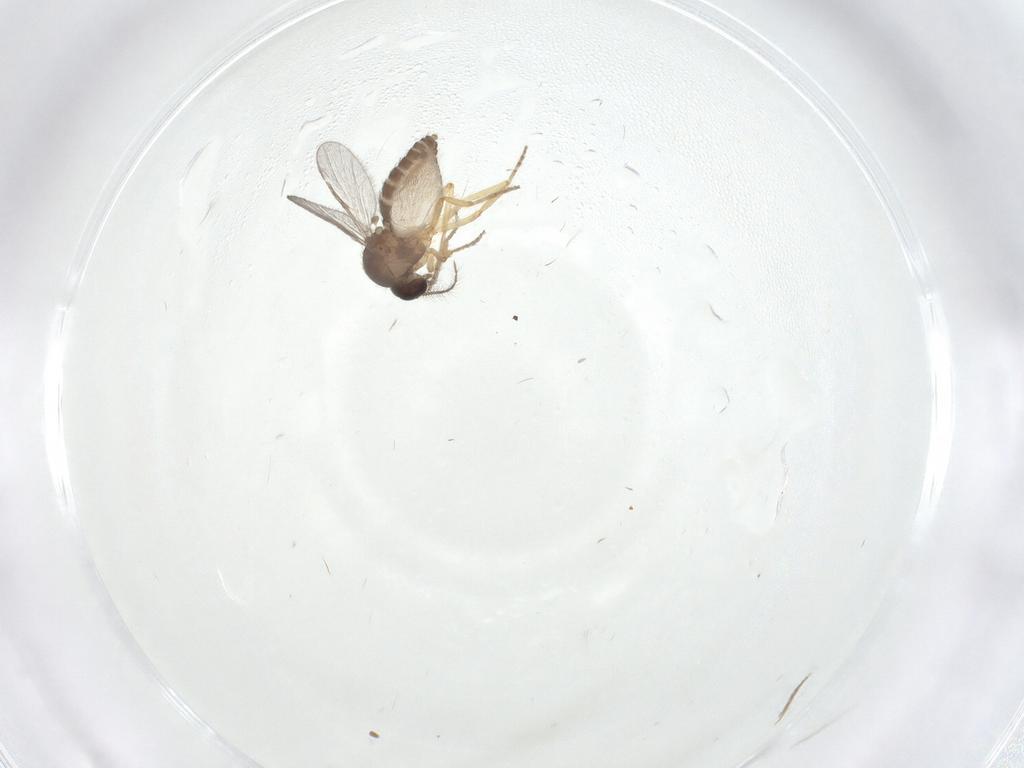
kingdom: Animalia
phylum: Arthropoda
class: Insecta
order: Diptera
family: Ceratopogonidae
